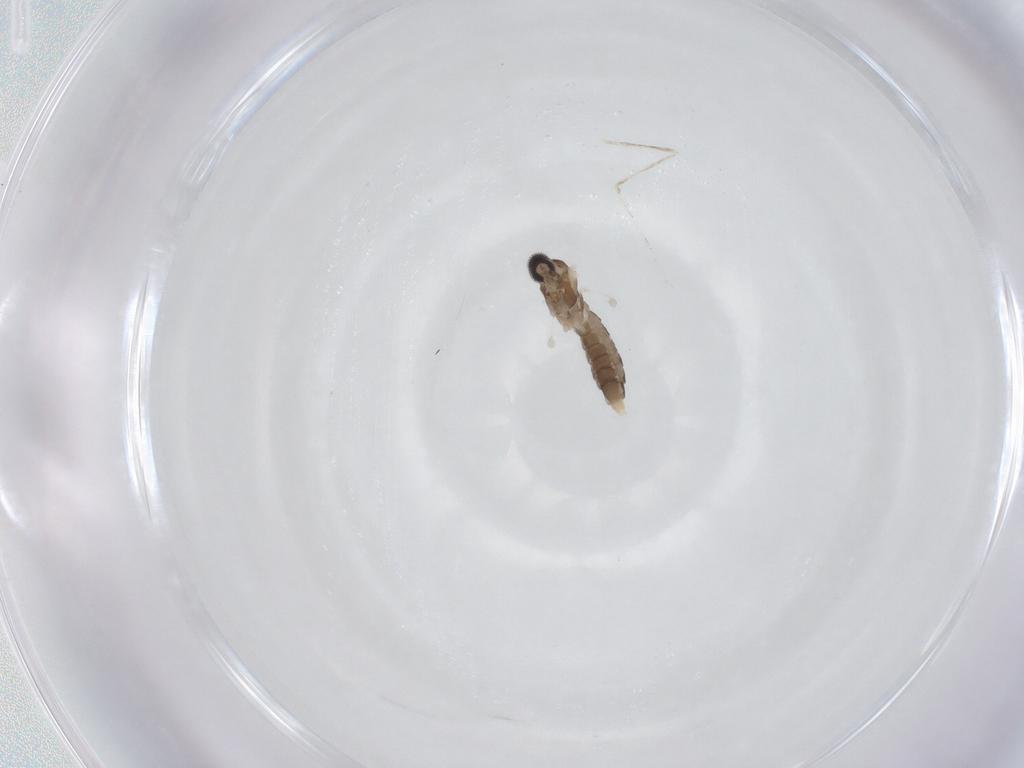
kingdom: Animalia
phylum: Arthropoda
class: Insecta
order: Diptera
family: Cecidomyiidae
